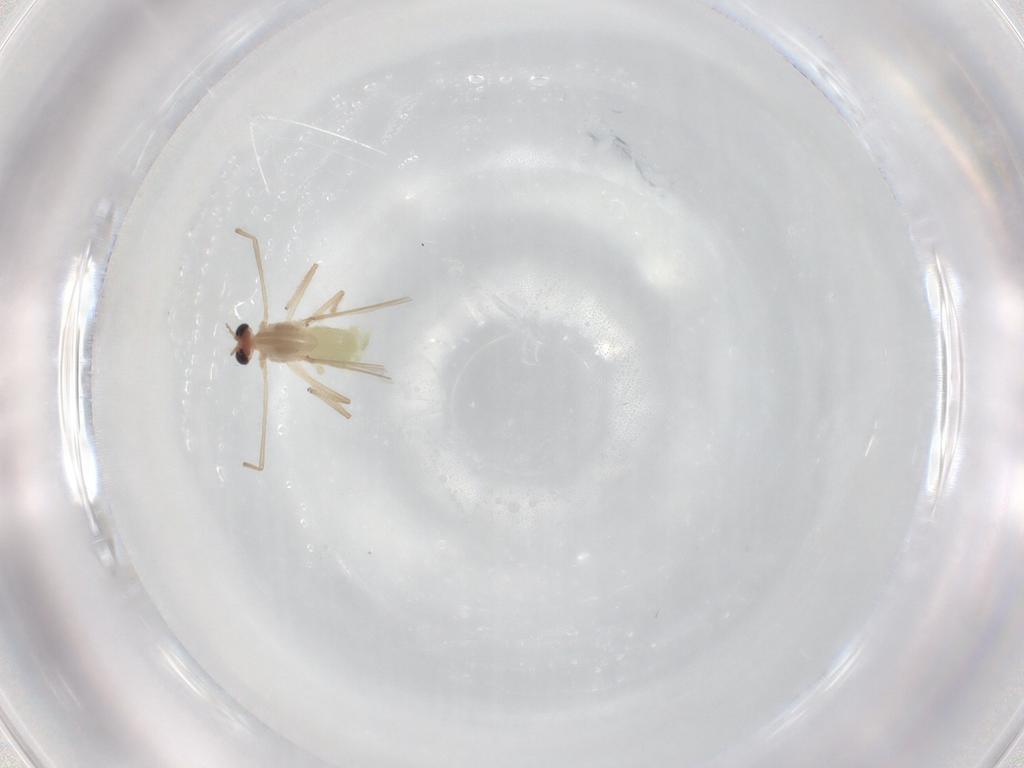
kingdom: Animalia
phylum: Arthropoda
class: Insecta
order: Diptera
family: Chironomidae
